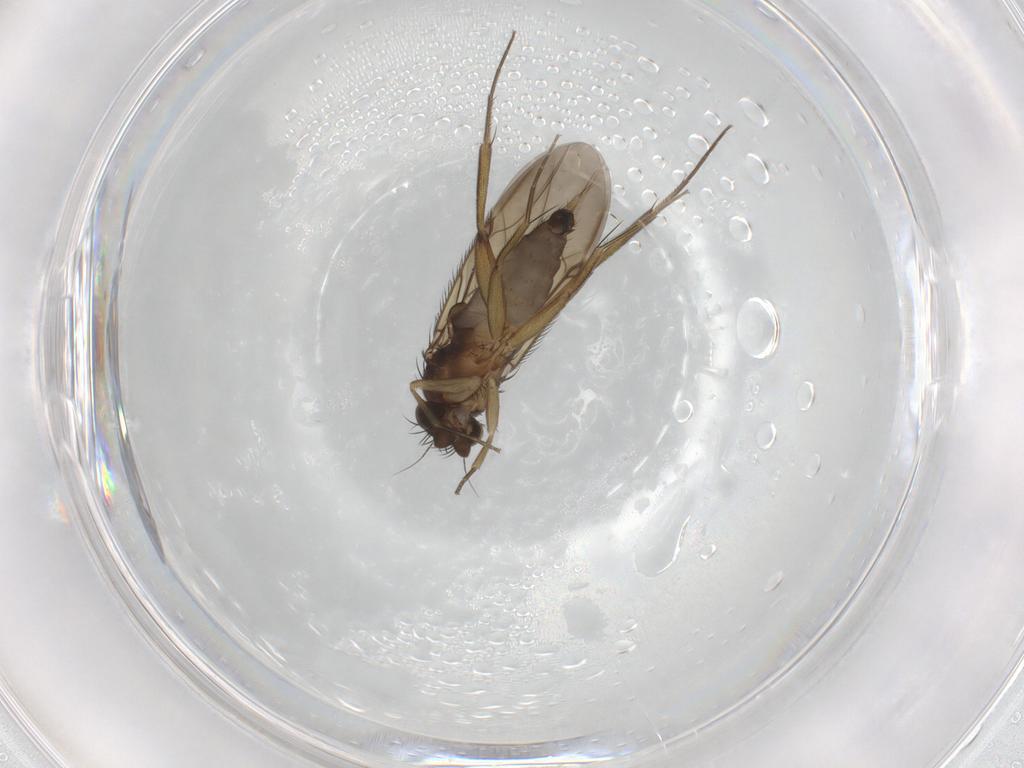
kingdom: Animalia
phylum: Arthropoda
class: Insecta
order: Diptera
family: Phoridae
